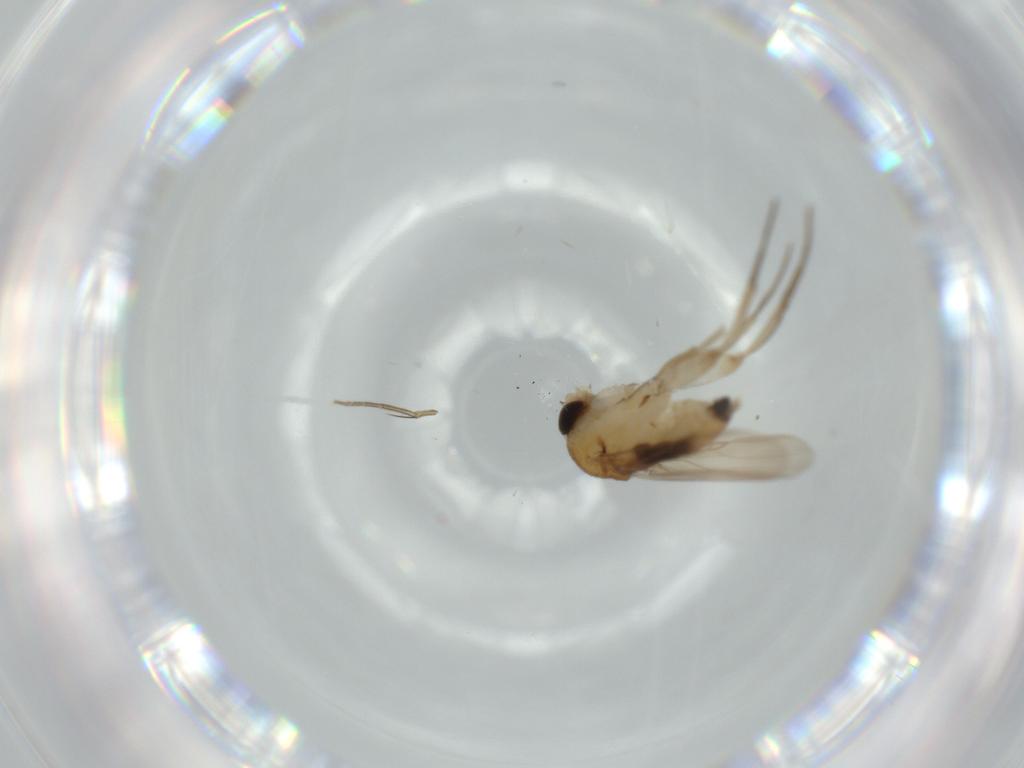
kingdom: Animalia
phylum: Arthropoda
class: Insecta
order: Diptera
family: Phoridae
